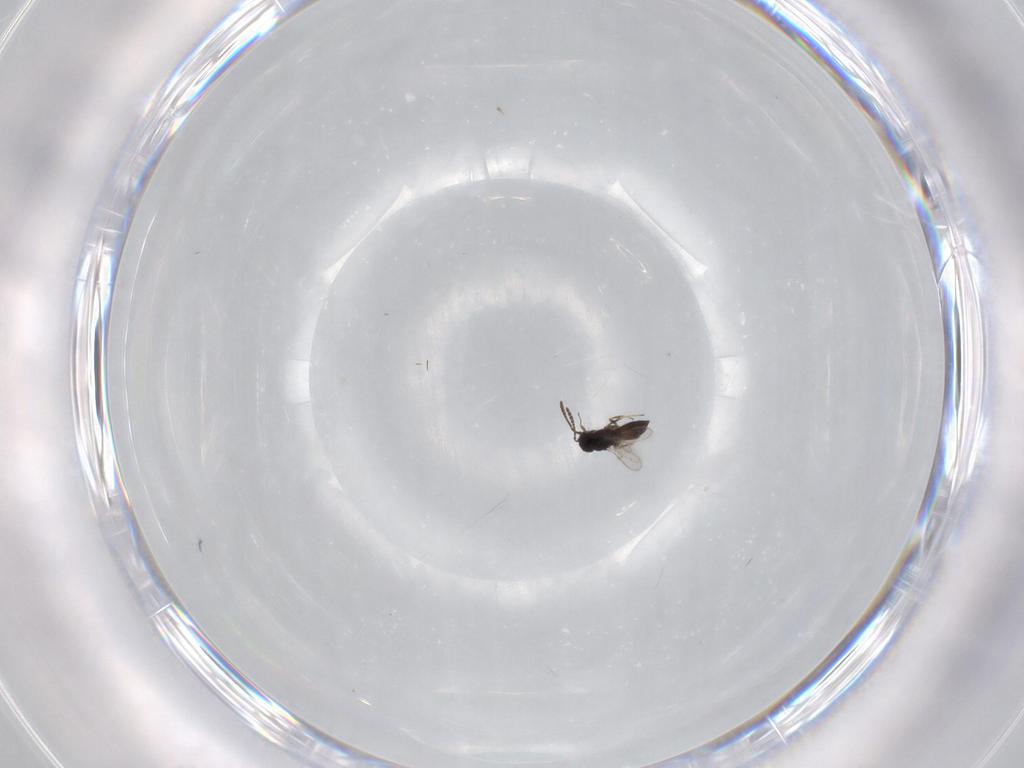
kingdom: Animalia
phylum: Arthropoda
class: Insecta
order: Hymenoptera
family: Scelionidae
